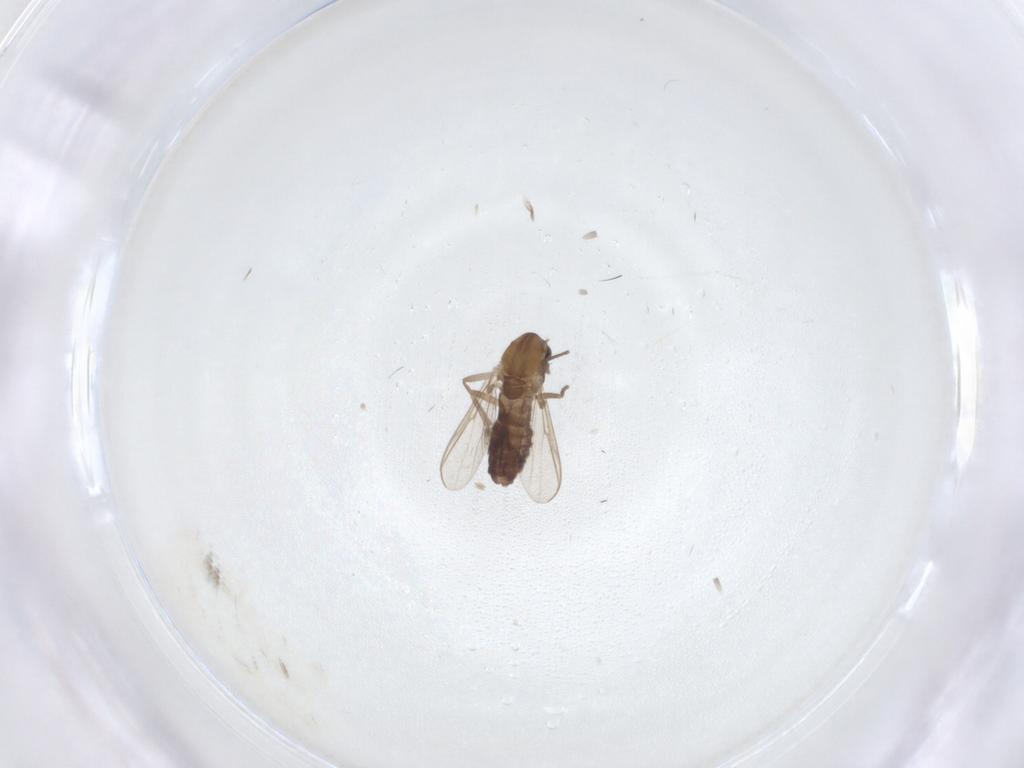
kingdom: Animalia
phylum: Arthropoda
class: Insecta
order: Diptera
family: Chironomidae
